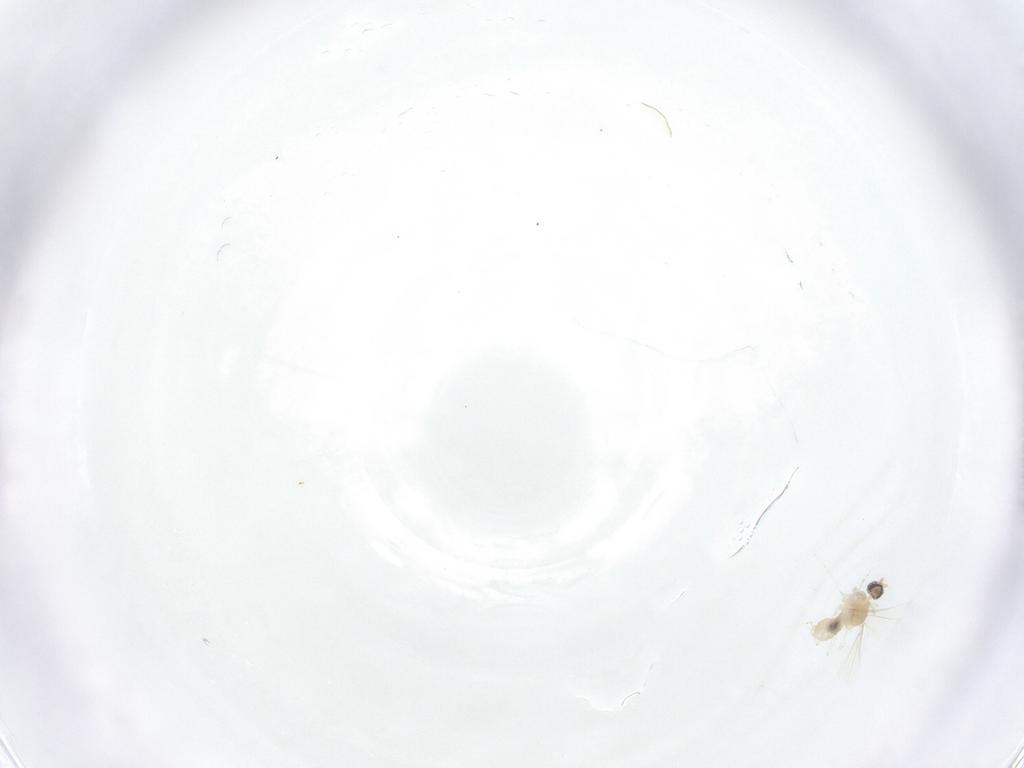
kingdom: Animalia
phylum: Arthropoda
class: Insecta
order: Diptera
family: Cecidomyiidae
